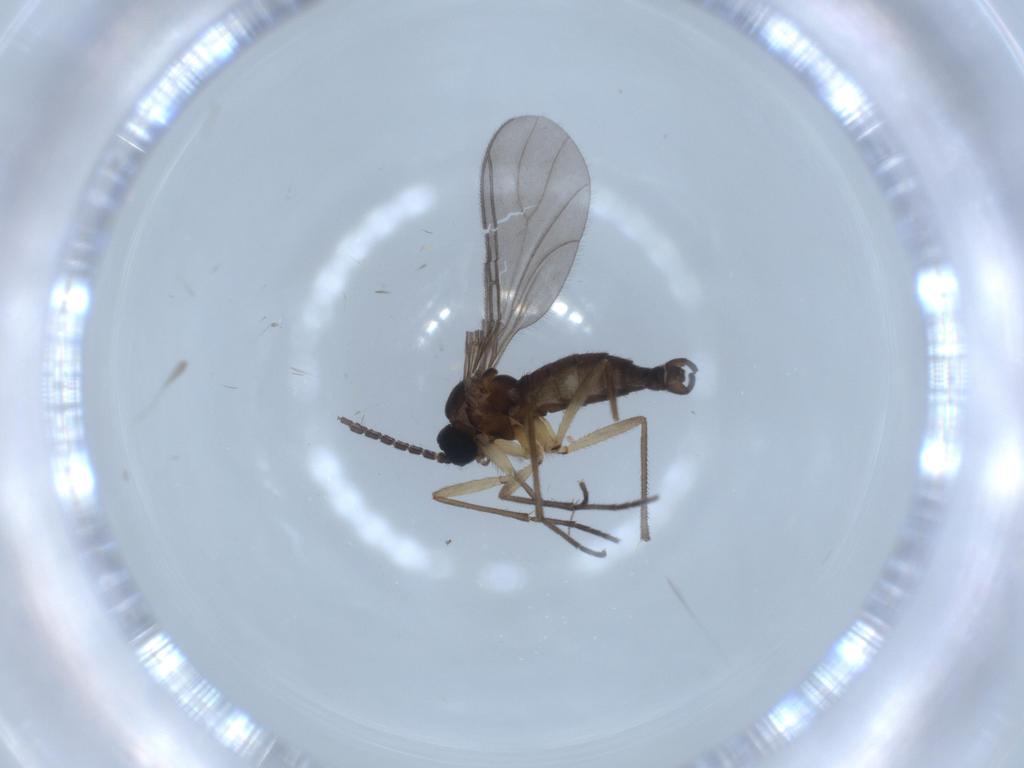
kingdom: Animalia
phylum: Arthropoda
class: Insecta
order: Diptera
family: Sciaridae
